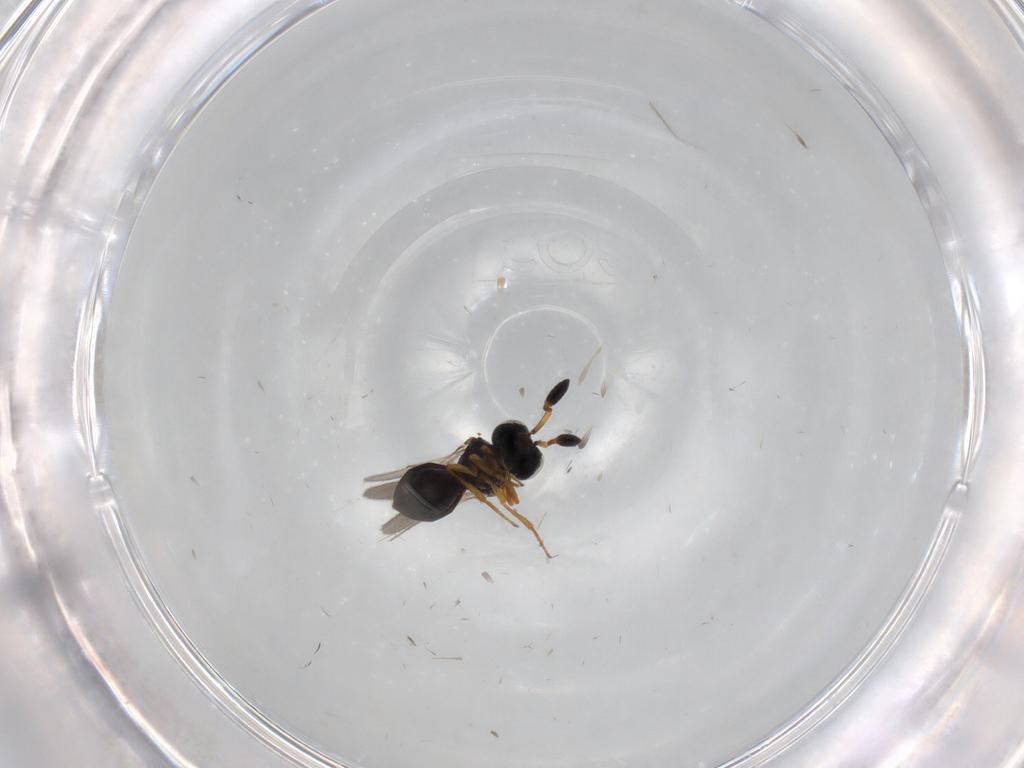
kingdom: Animalia
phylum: Arthropoda
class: Insecta
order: Hymenoptera
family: Scelionidae
